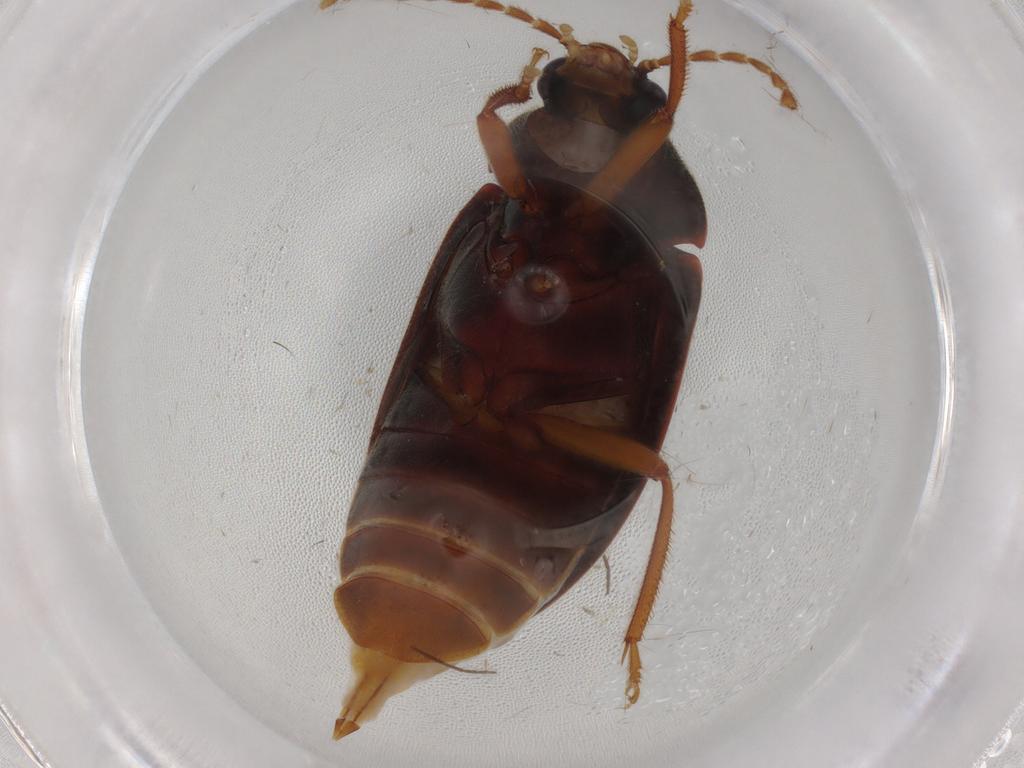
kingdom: Animalia
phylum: Arthropoda
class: Insecta
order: Coleoptera
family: Ptilodactylidae
